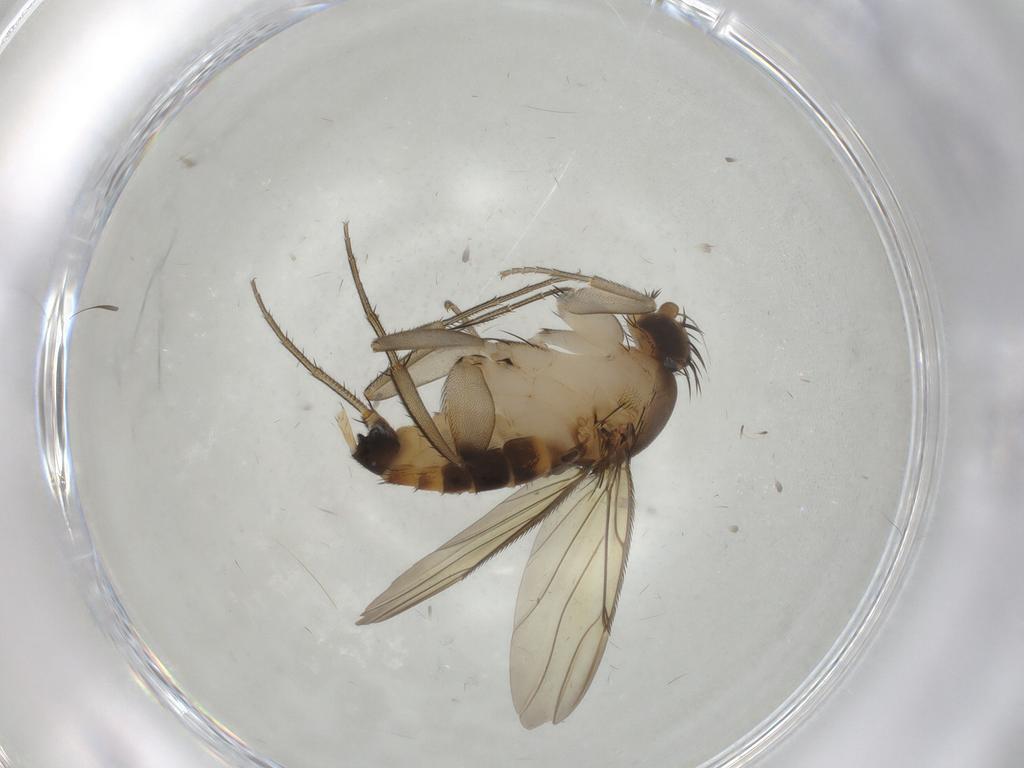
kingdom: Animalia
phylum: Arthropoda
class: Insecta
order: Diptera
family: Phoridae
